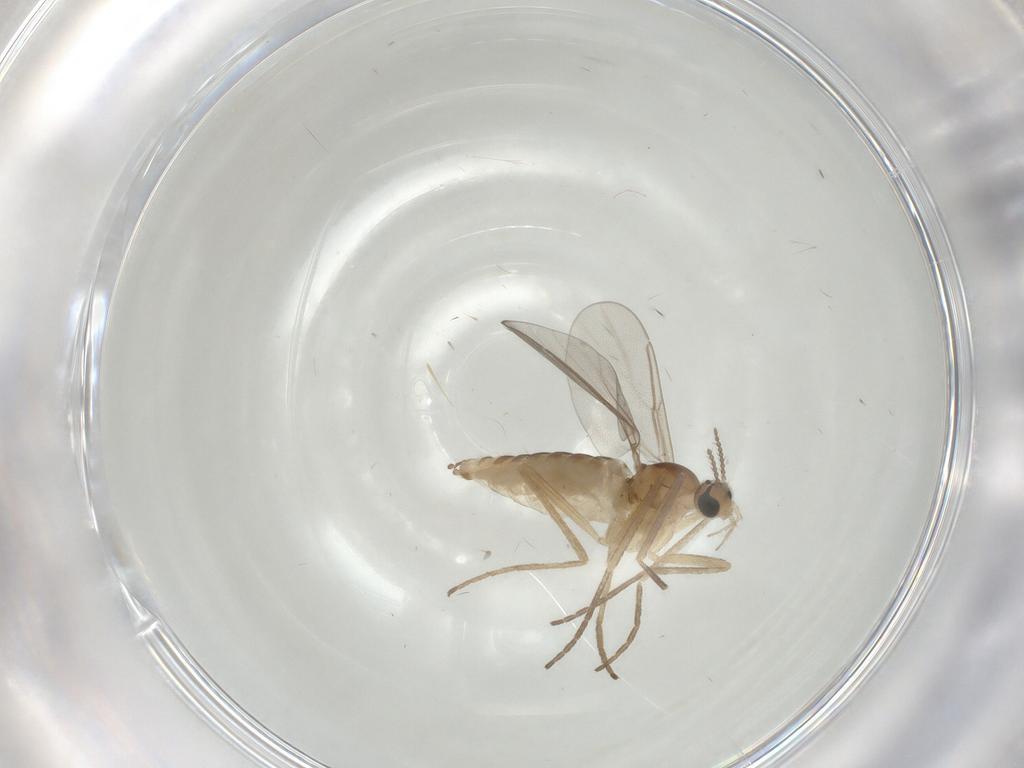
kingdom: Animalia
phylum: Arthropoda
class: Insecta
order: Diptera
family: Cecidomyiidae
